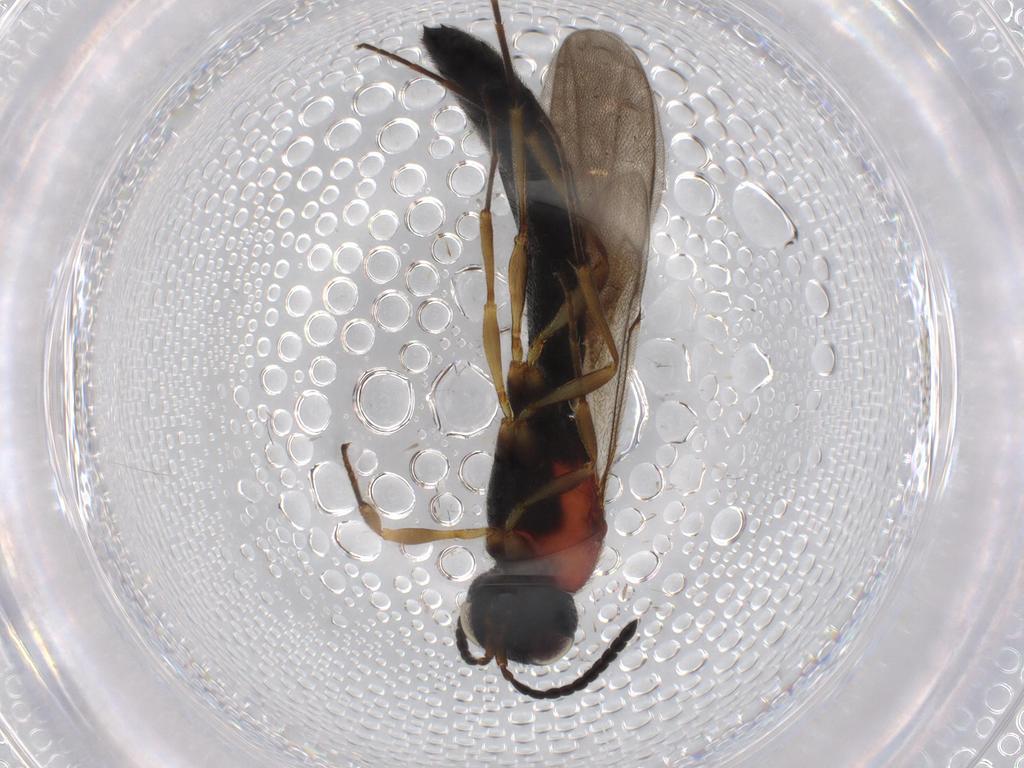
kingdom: Animalia
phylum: Arthropoda
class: Insecta
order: Hymenoptera
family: Scelionidae
